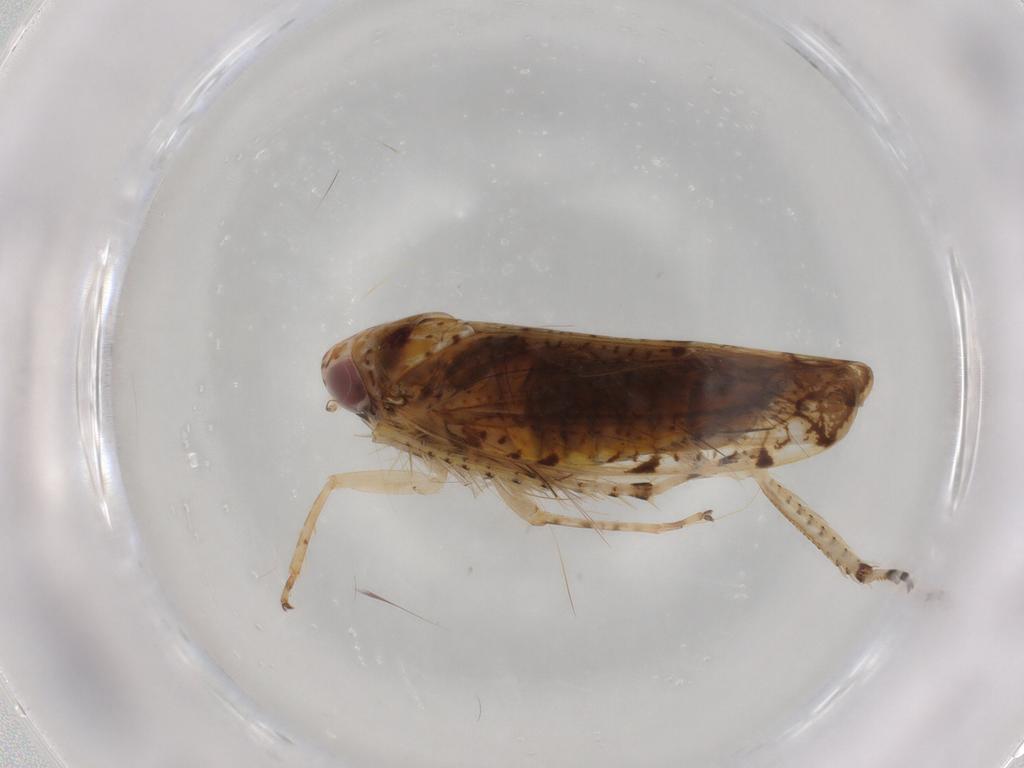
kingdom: Animalia
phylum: Arthropoda
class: Insecta
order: Hemiptera
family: Cicadellidae
